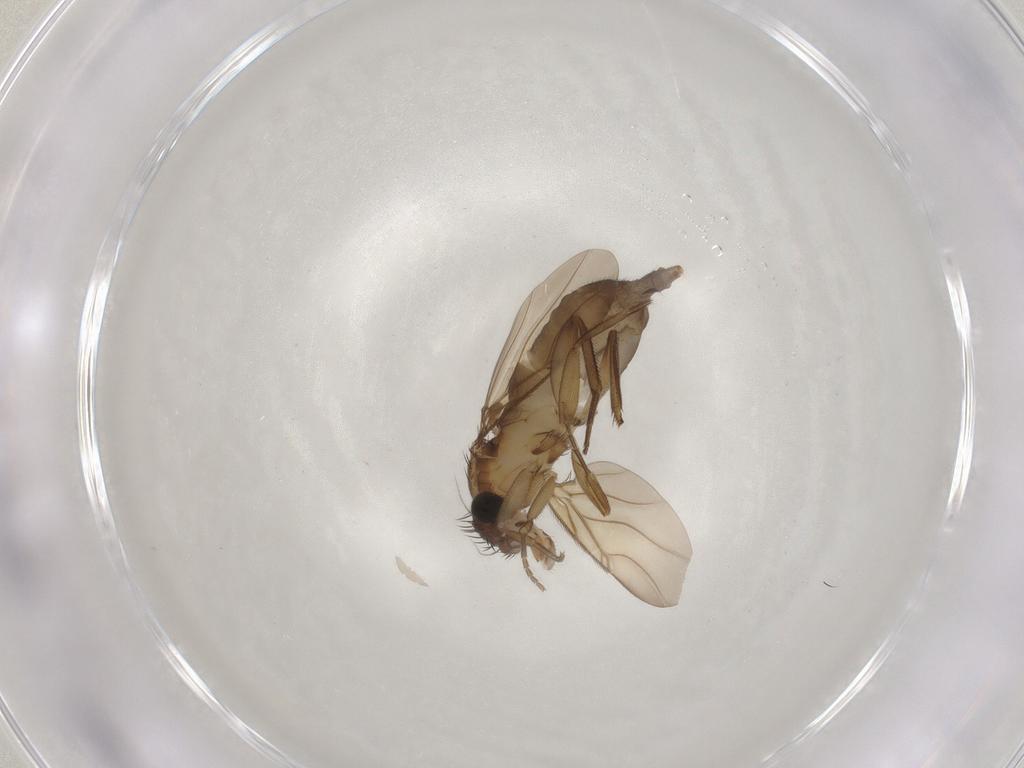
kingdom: Animalia
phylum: Arthropoda
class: Insecta
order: Diptera
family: Phoridae
